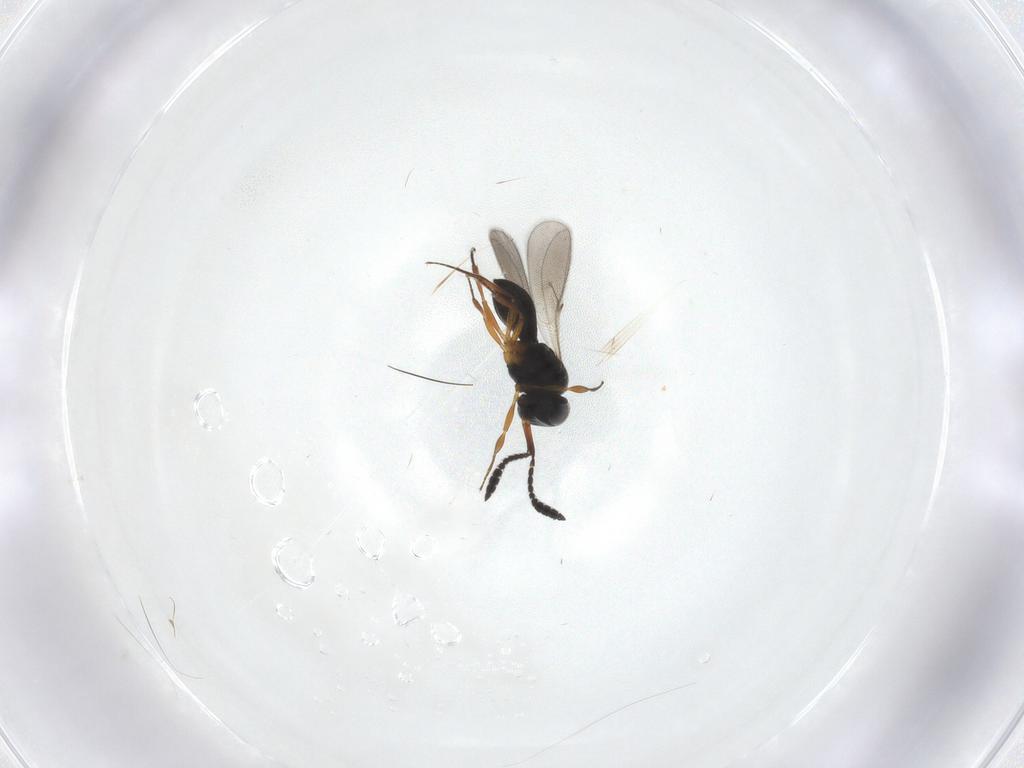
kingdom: Animalia
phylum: Arthropoda
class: Insecta
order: Hymenoptera
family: Scelionidae
